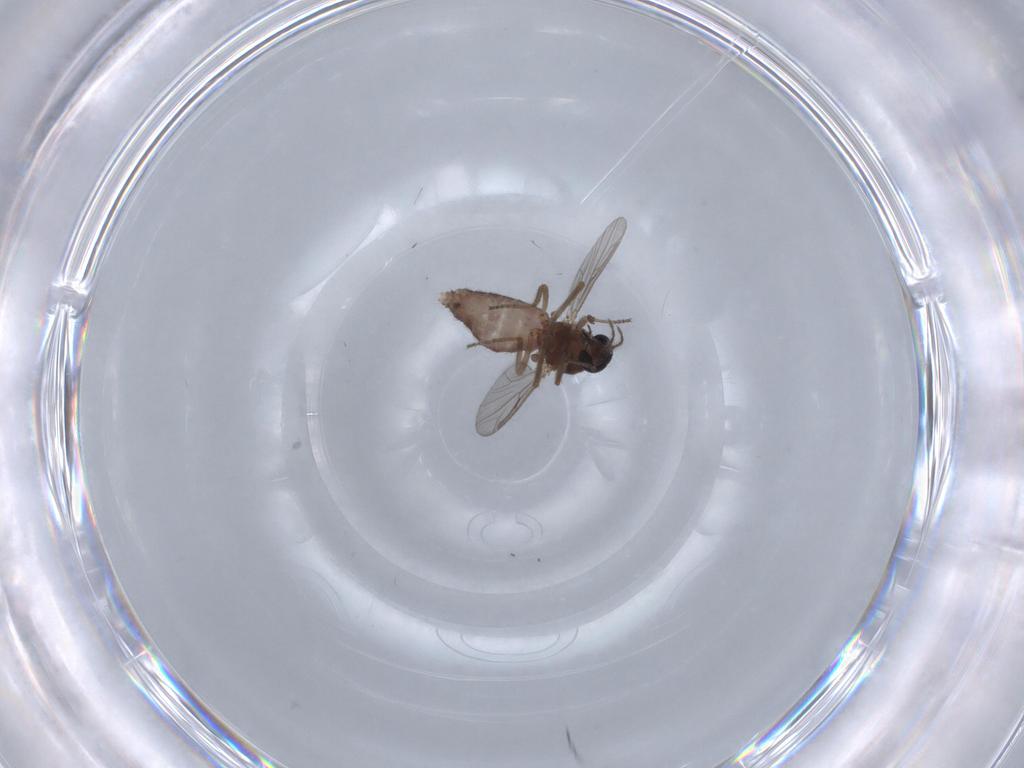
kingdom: Animalia
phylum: Arthropoda
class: Insecta
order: Diptera
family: Ceratopogonidae
